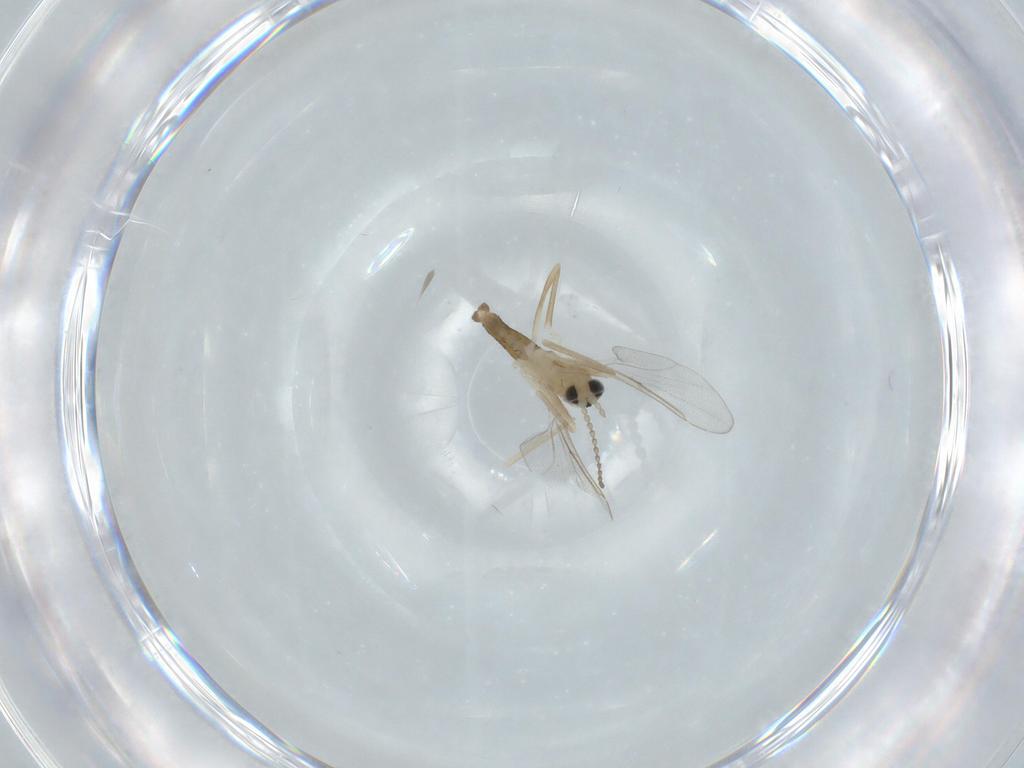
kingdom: Animalia
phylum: Arthropoda
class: Insecta
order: Diptera
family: Cecidomyiidae
